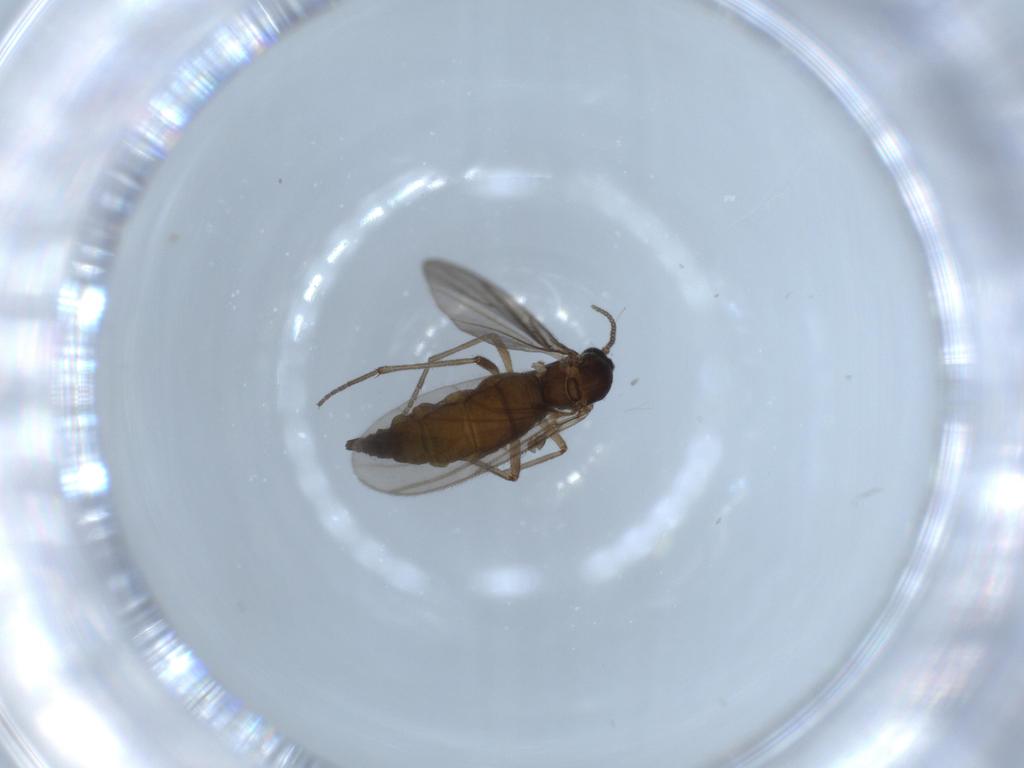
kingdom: Animalia
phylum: Arthropoda
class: Insecta
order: Diptera
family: Sciaridae
